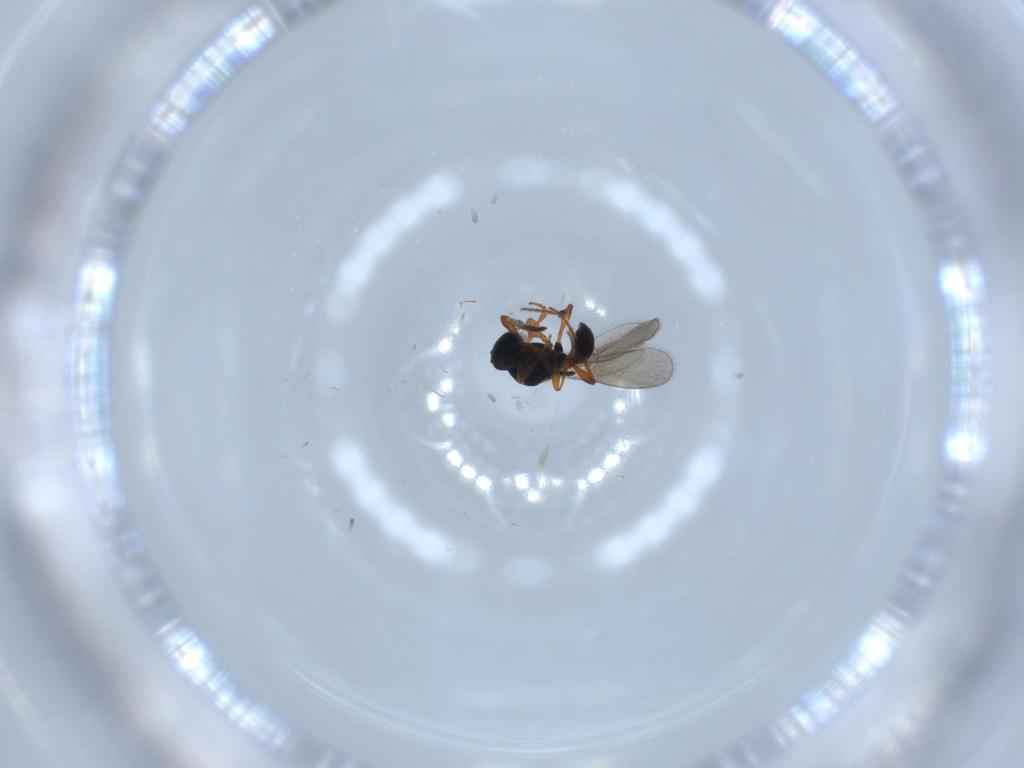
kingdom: Animalia
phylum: Arthropoda
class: Insecta
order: Hymenoptera
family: Platygastridae
